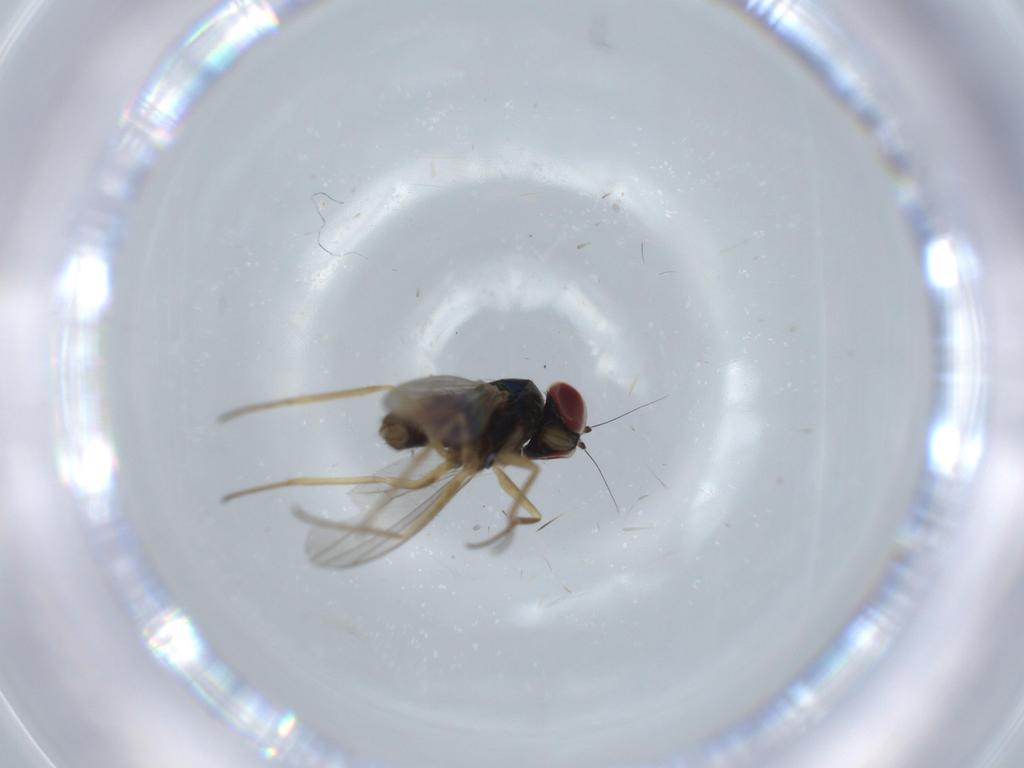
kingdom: Animalia
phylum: Arthropoda
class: Insecta
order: Diptera
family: Dolichopodidae
